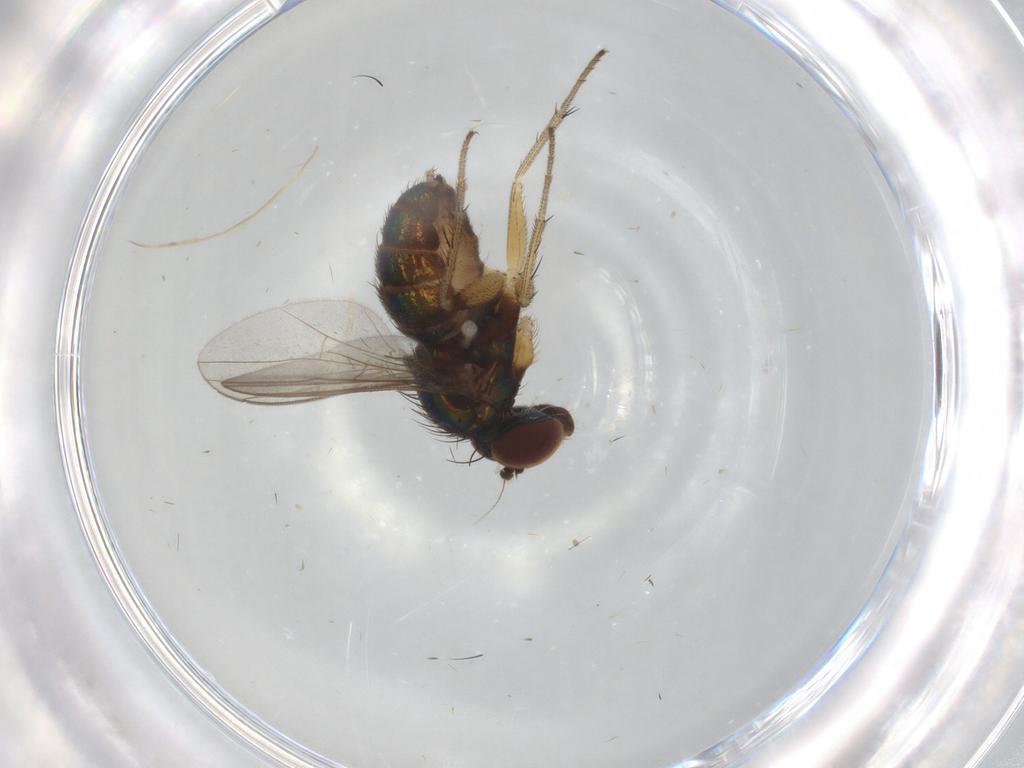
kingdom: Animalia
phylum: Arthropoda
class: Insecta
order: Diptera
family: Dolichopodidae
